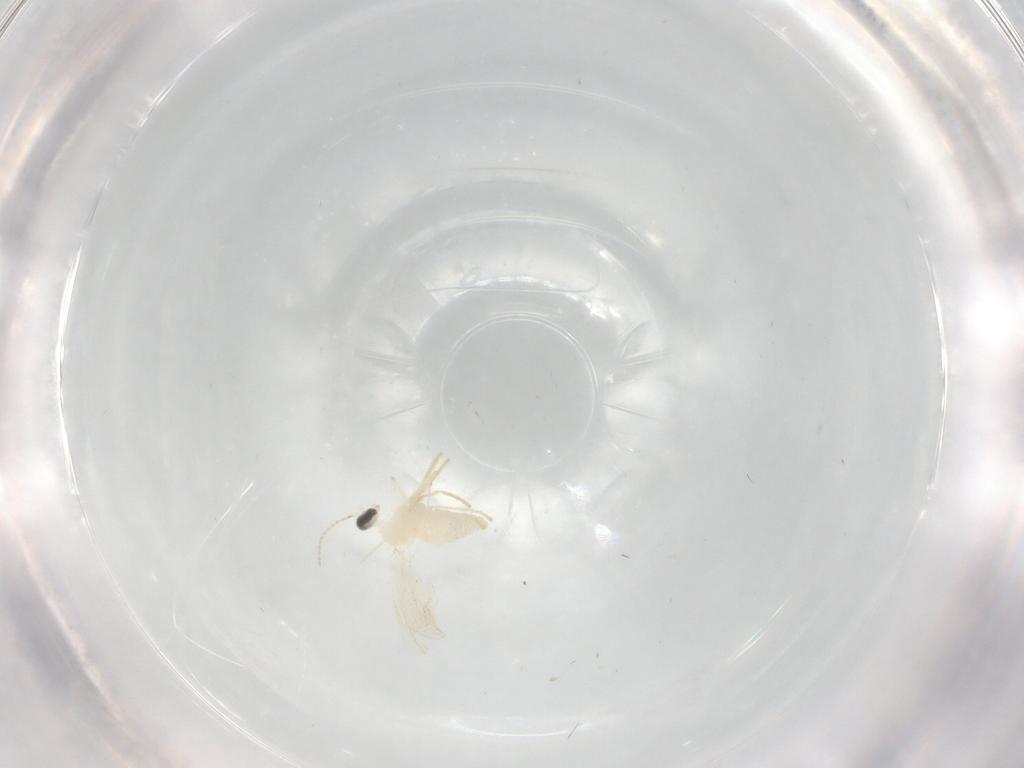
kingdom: Animalia
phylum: Arthropoda
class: Insecta
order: Diptera
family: Cecidomyiidae
